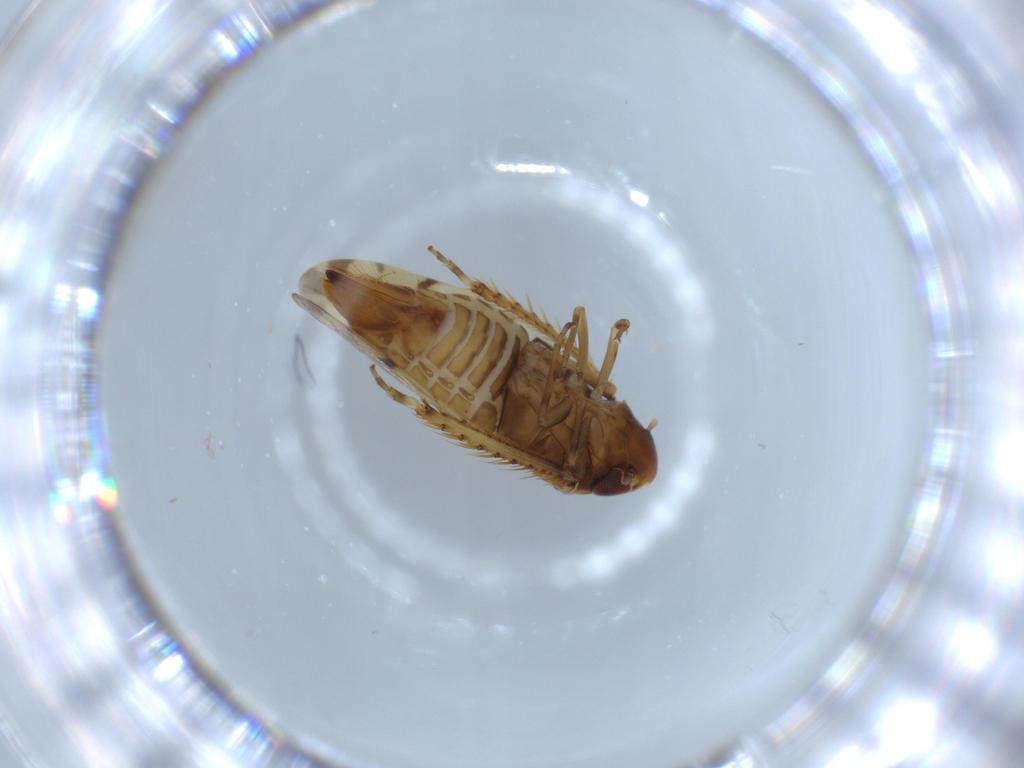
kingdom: Animalia
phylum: Arthropoda
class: Insecta
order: Hemiptera
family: Cicadellidae
